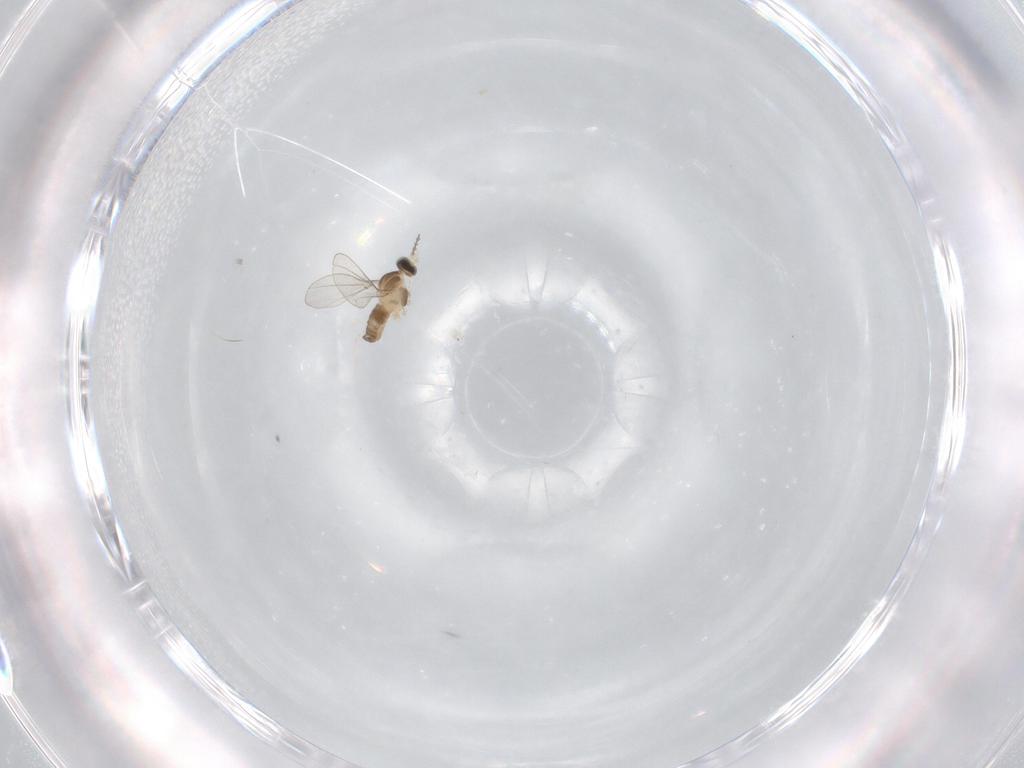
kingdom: Animalia
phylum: Arthropoda
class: Insecta
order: Diptera
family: Cecidomyiidae
